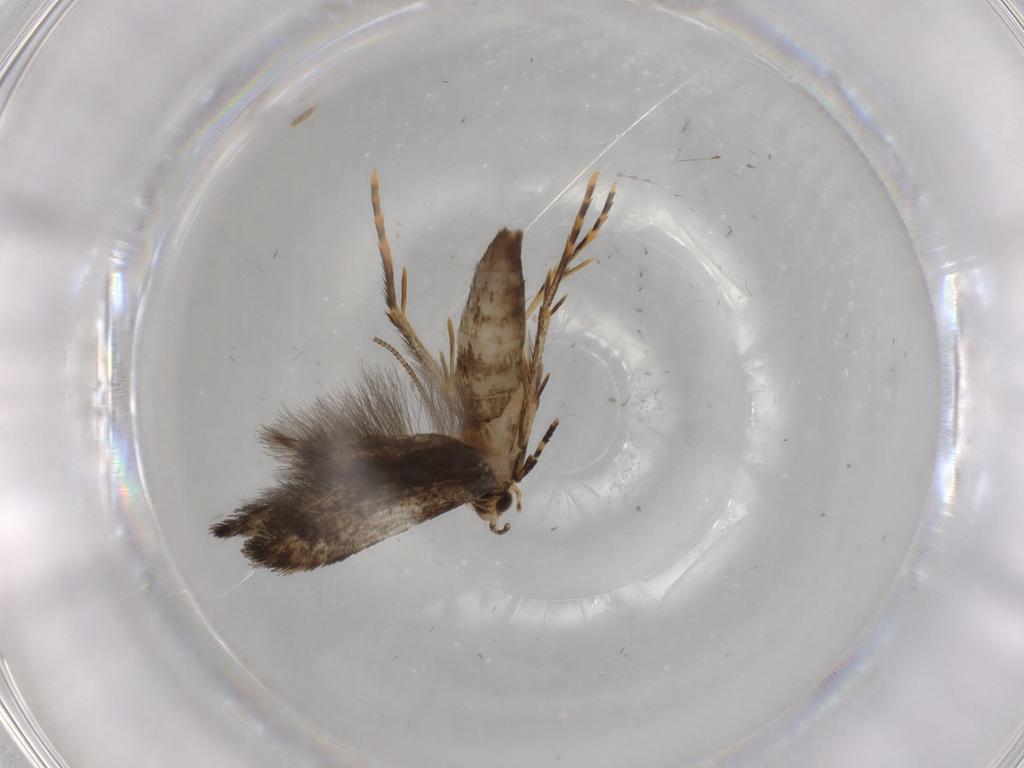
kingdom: Animalia
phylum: Arthropoda
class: Insecta
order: Lepidoptera
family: Tineidae
